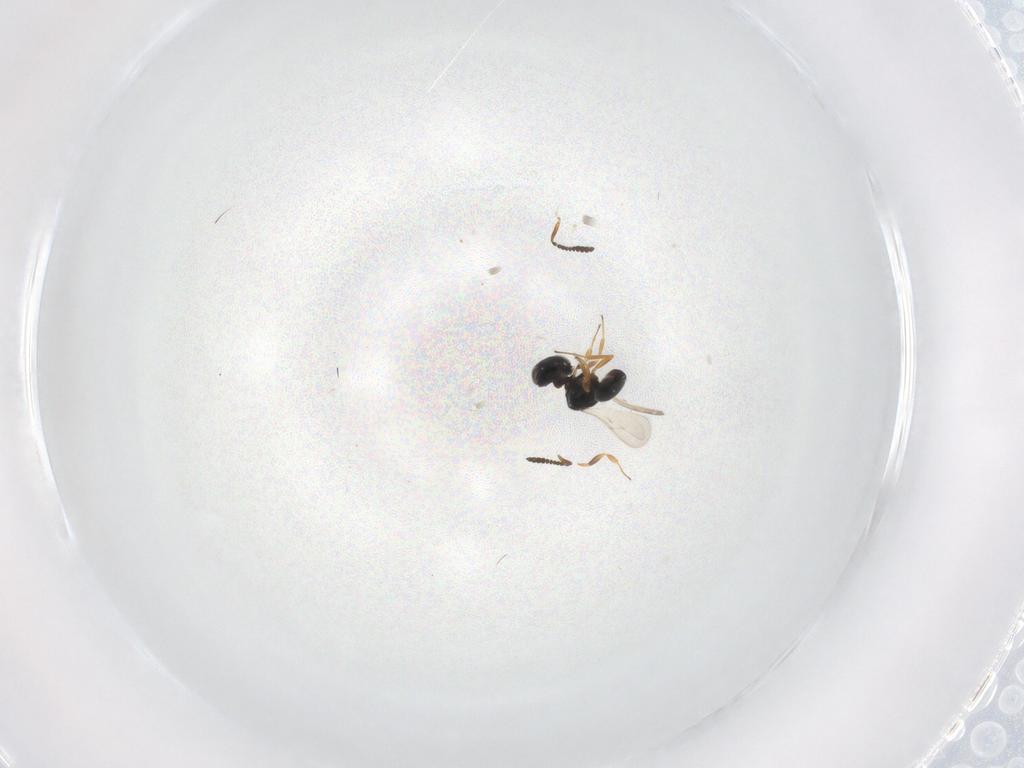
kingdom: Animalia
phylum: Arthropoda
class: Insecta
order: Hymenoptera
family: Scelionidae
